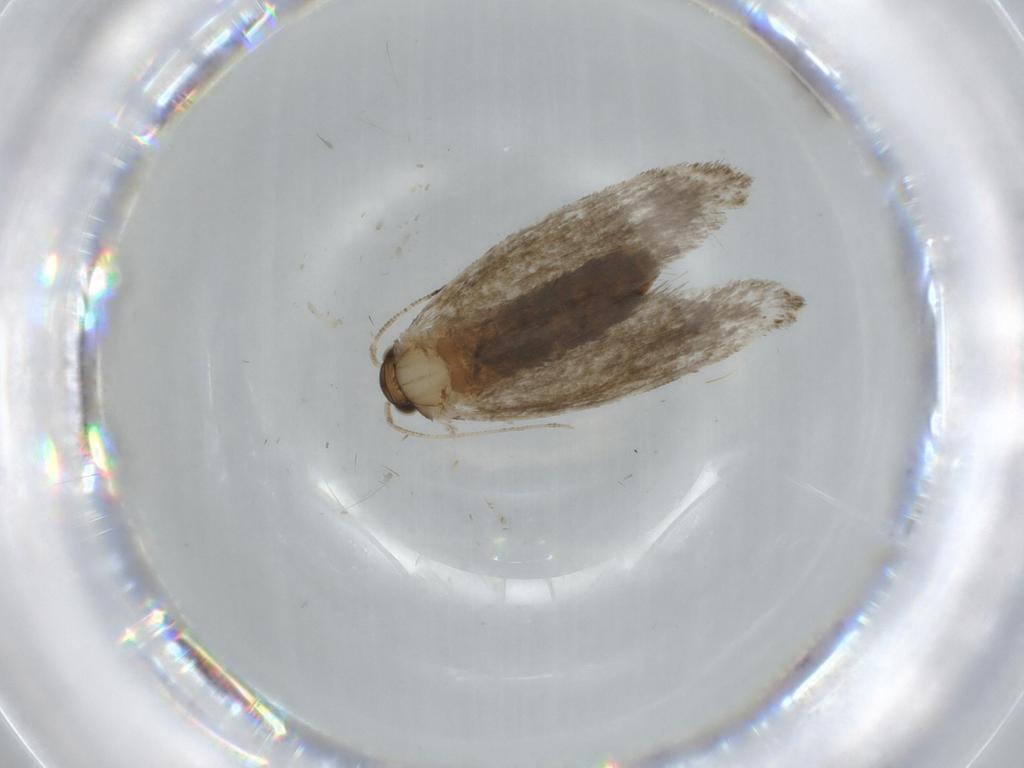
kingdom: Animalia
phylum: Arthropoda
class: Insecta
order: Lepidoptera
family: Tineidae
